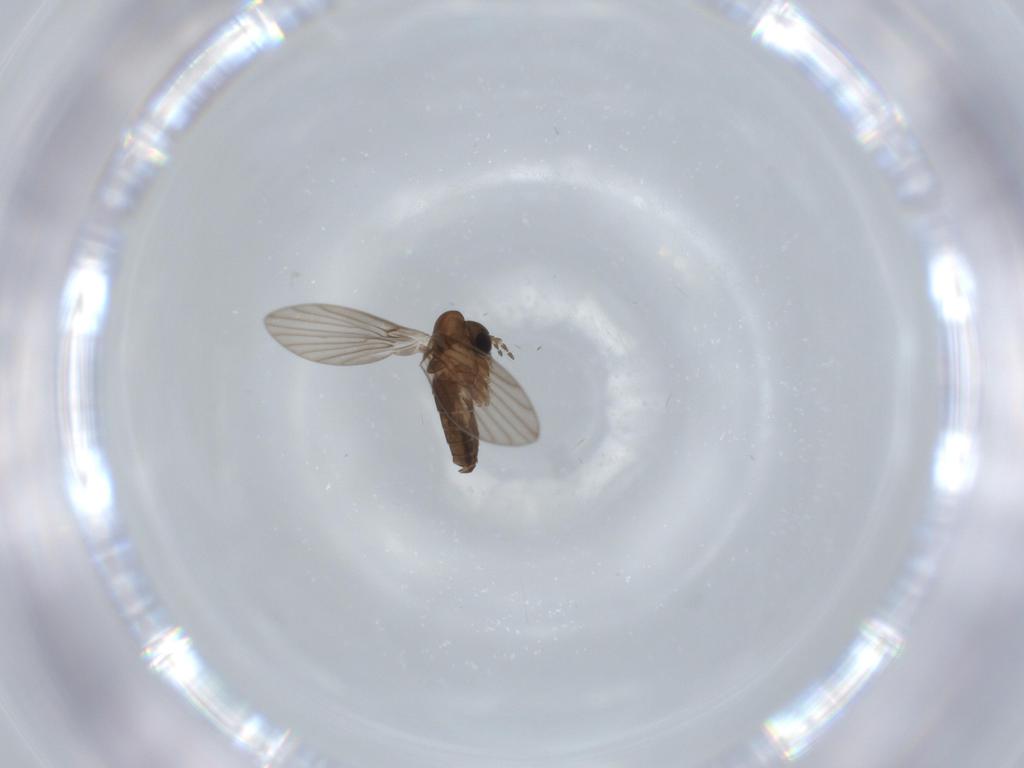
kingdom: Animalia
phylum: Arthropoda
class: Insecta
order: Diptera
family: Psychodidae
